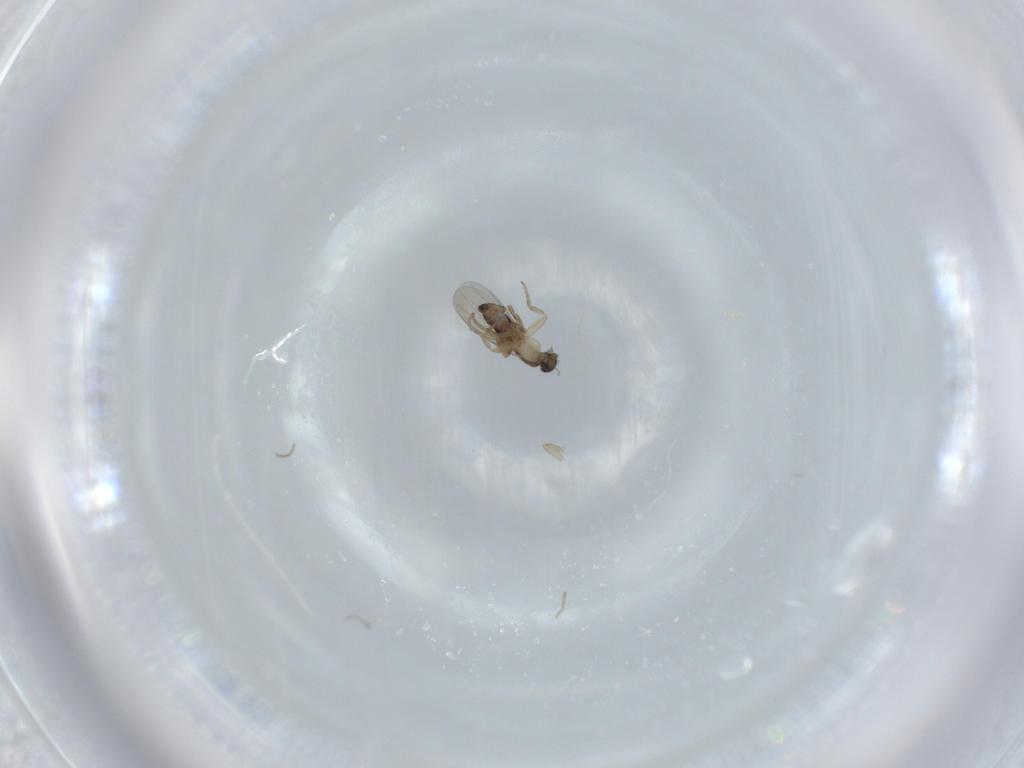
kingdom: Animalia
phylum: Arthropoda
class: Insecta
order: Diptera
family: Phoridae
